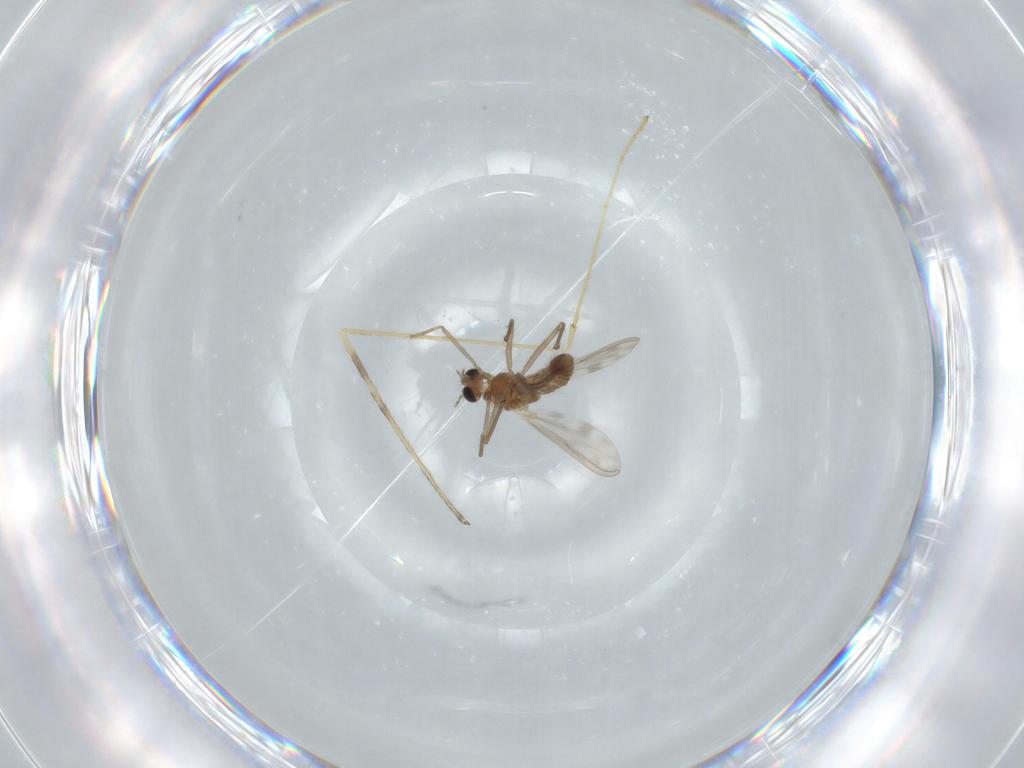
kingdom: Animalia
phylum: Arthropoda
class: Insecta
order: Diptera
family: Chironomidae
